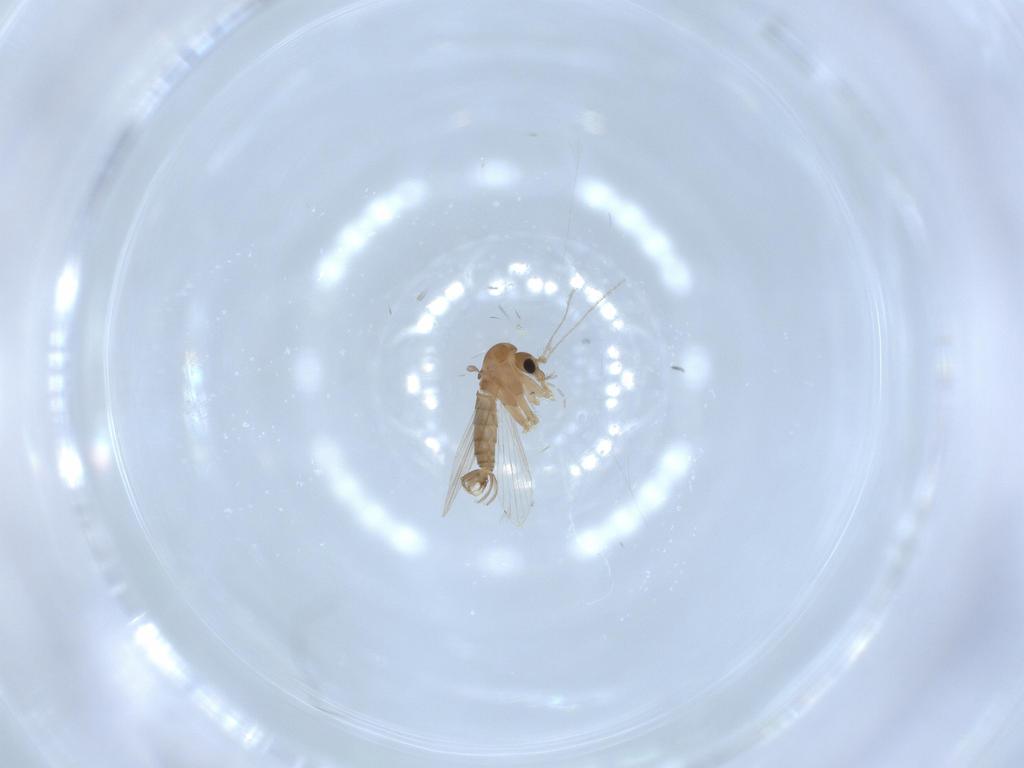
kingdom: Animalia
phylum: Arthropoda
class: Insecta
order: Diptera
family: Psychodidae
